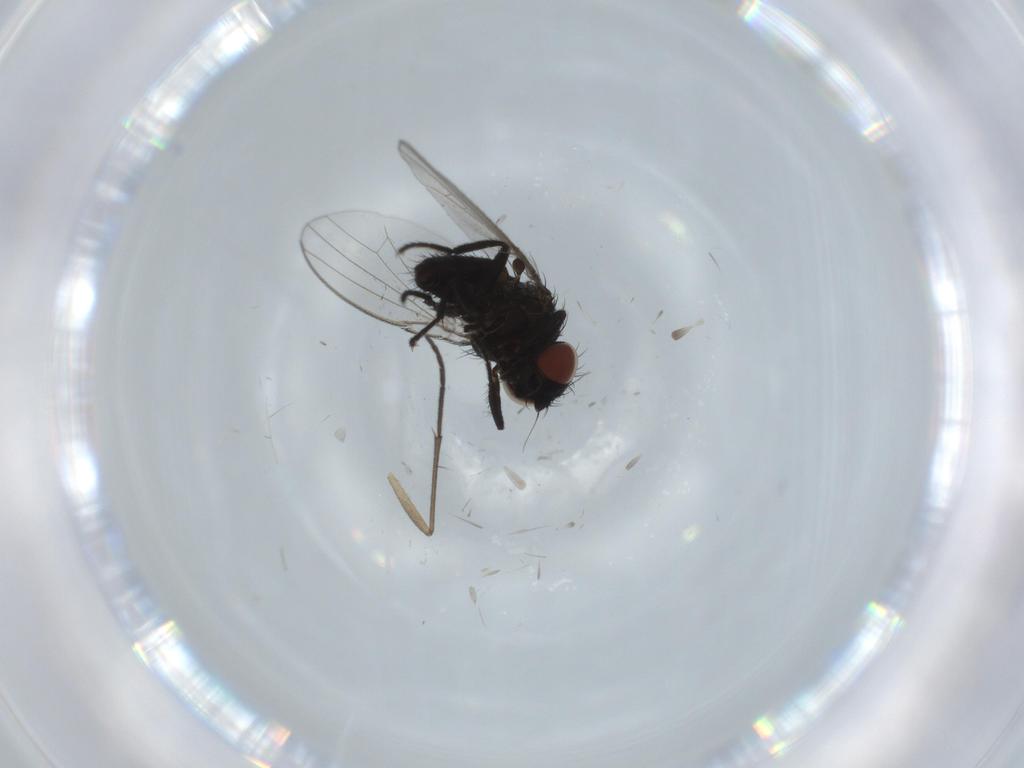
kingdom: Animalia
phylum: Arthropoda
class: Insecta
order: Diptera
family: Sciaridae
